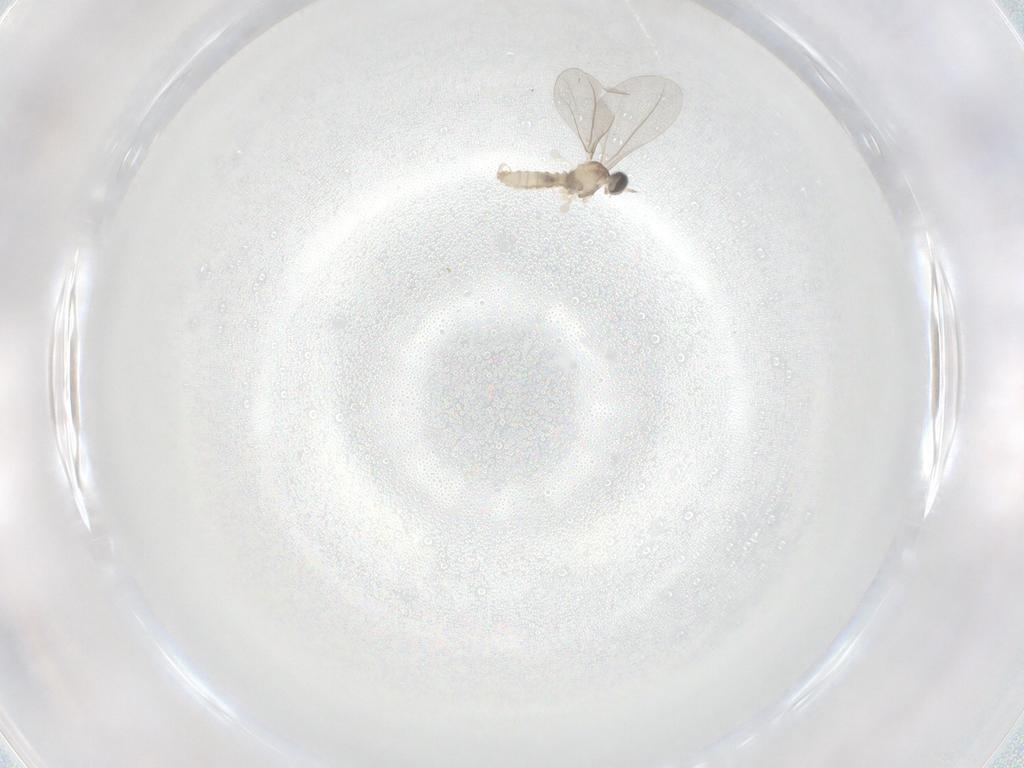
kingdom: Animalia
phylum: Arthropoda
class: Insecta
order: Diptera
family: Cecidomyiidae
